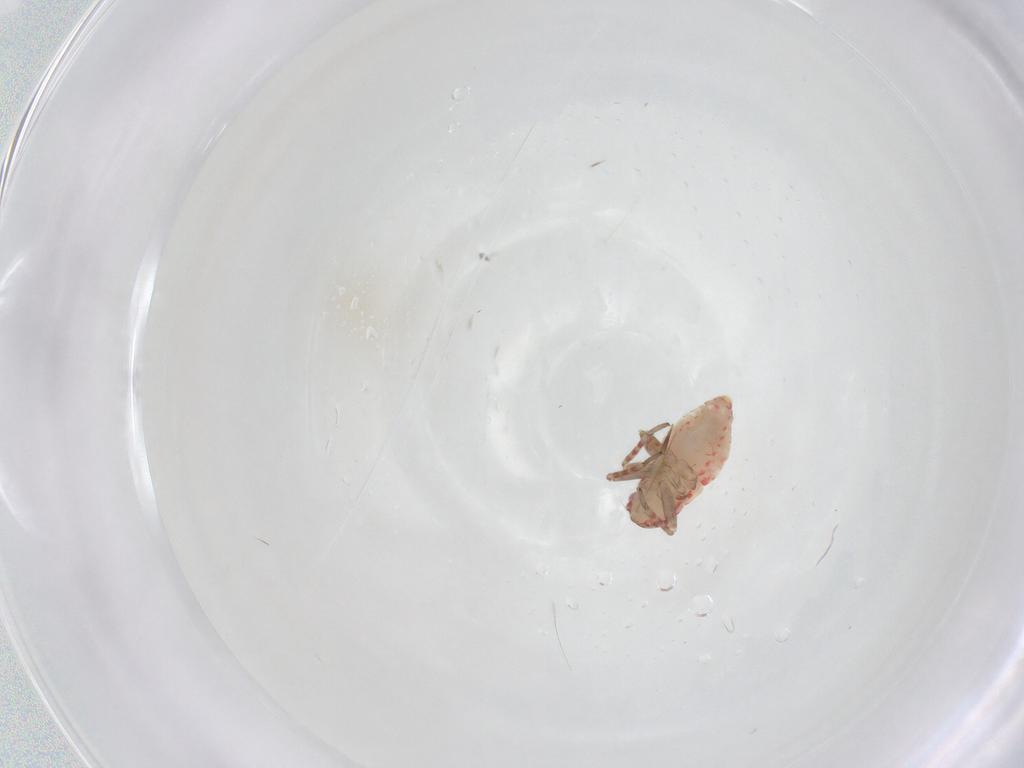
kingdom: Animalia
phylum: Arthropoda
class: Insecta
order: Hemiptera
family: Miridae
